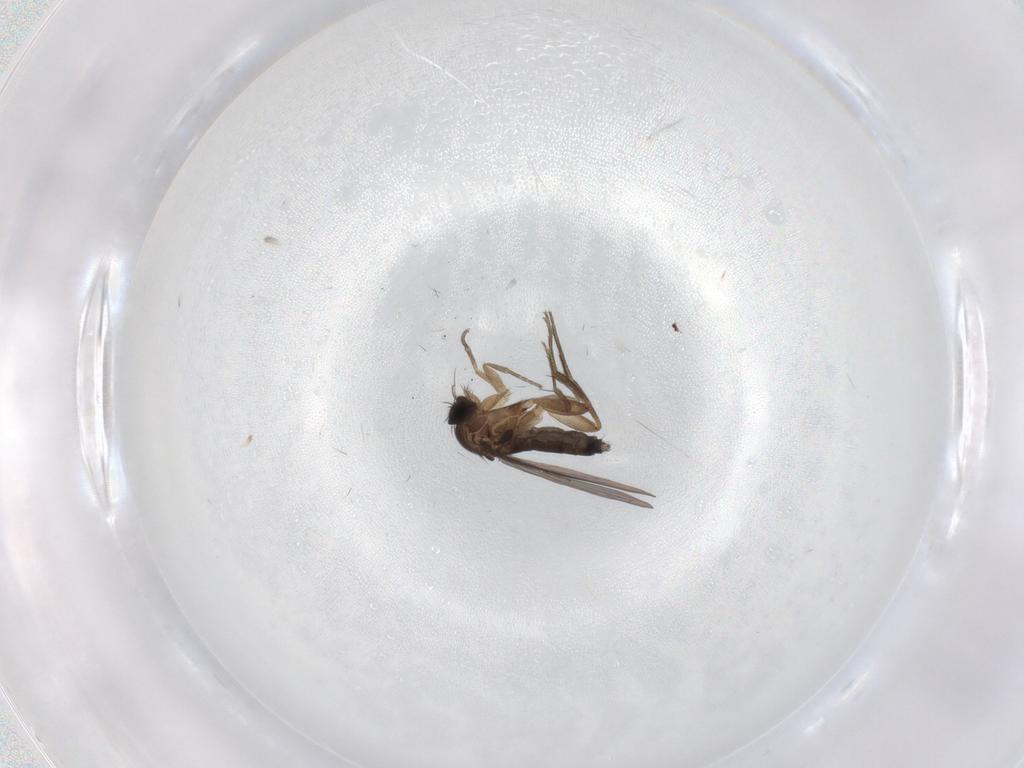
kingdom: Animalia
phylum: Arthropoda
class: Insecta
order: Diptera
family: Phoridae
